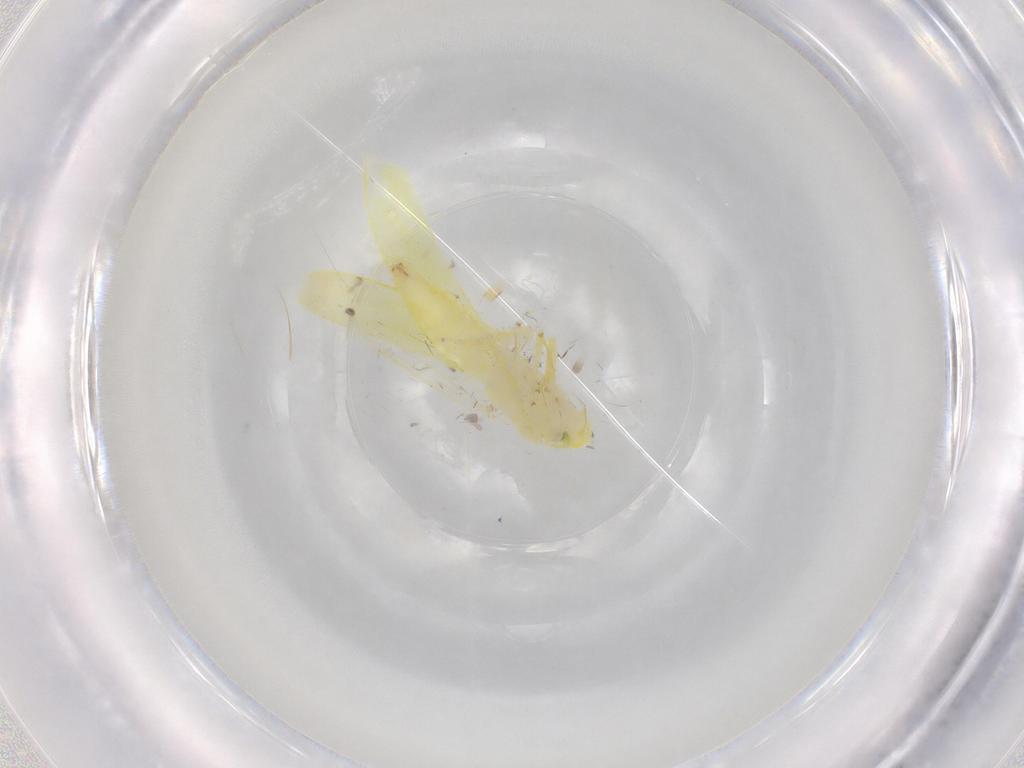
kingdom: Animalia
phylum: Arthropoda
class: Insecta
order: Hemiptera
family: Cicadellidae
